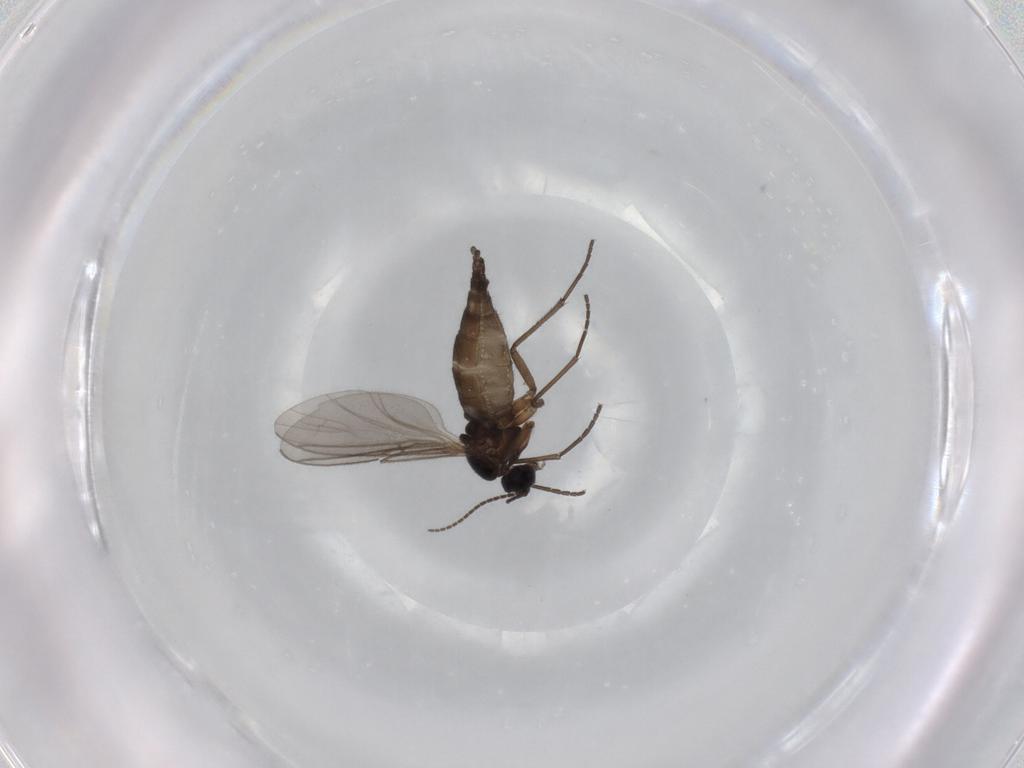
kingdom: Animalia
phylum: Arthropoda
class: Insecta
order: Diptera
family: Sciaridae
